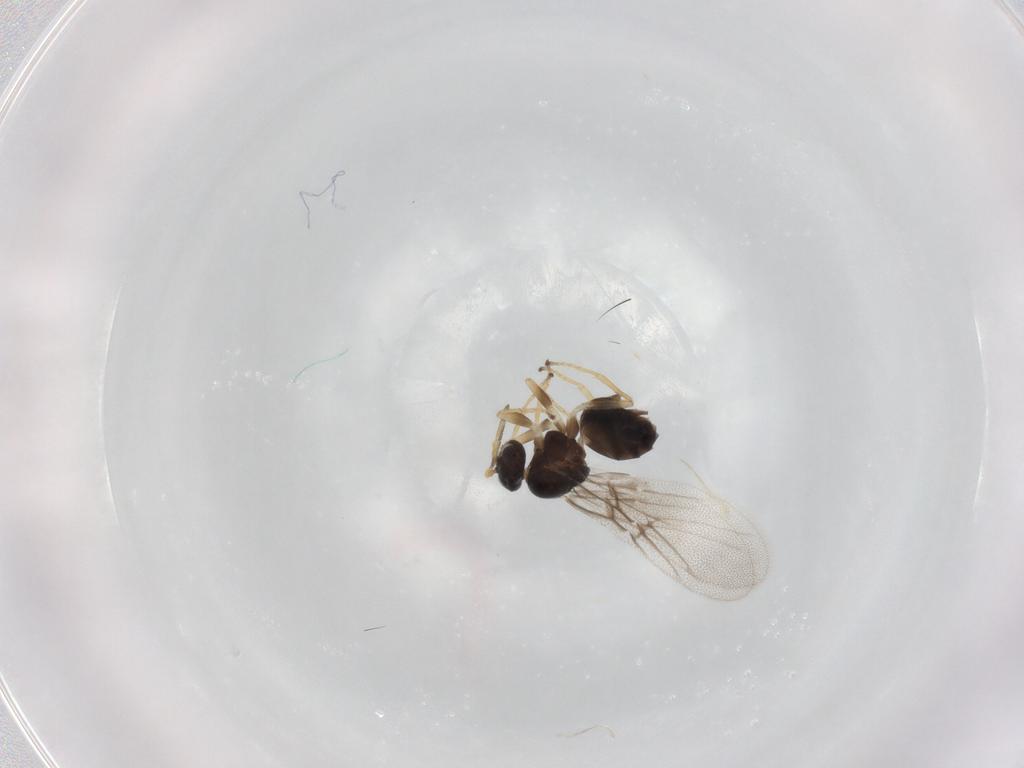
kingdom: Animalia
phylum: Arthropoda
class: Insecta
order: Hymenoptera
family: Cynipidae
